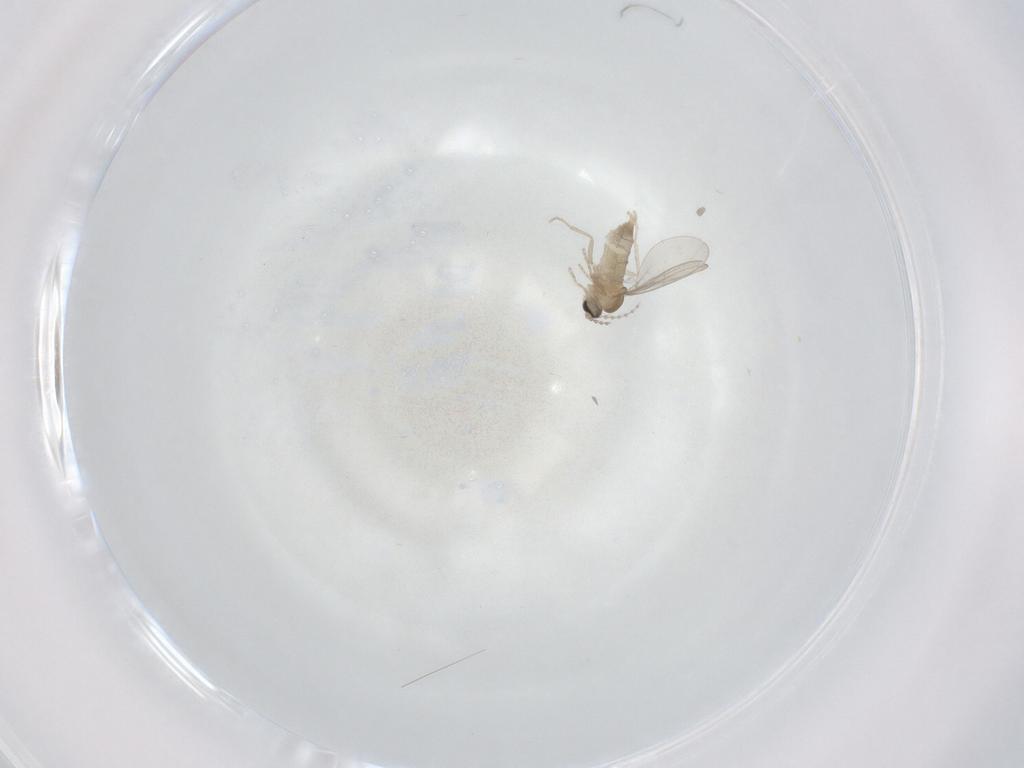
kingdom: Animalia
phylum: Arthropoda
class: Insecta
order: Diptera
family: Cecidomyiidae
